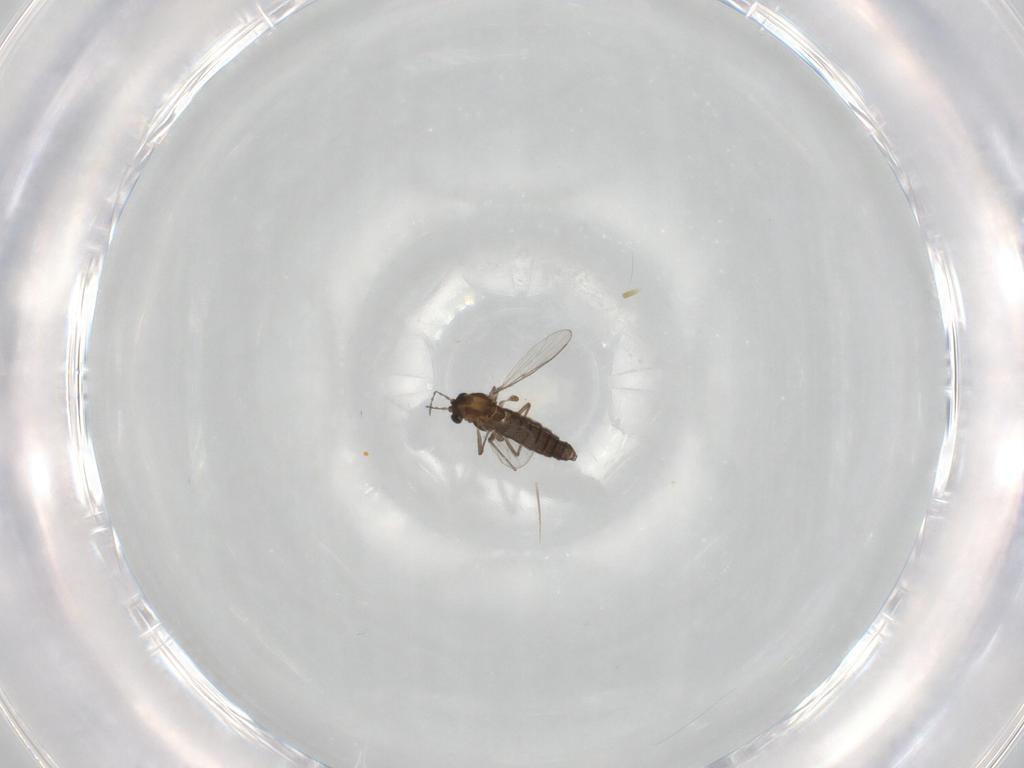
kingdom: Animalia
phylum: Arthropoda
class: Insecta
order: Diptera
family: Chironomidae
